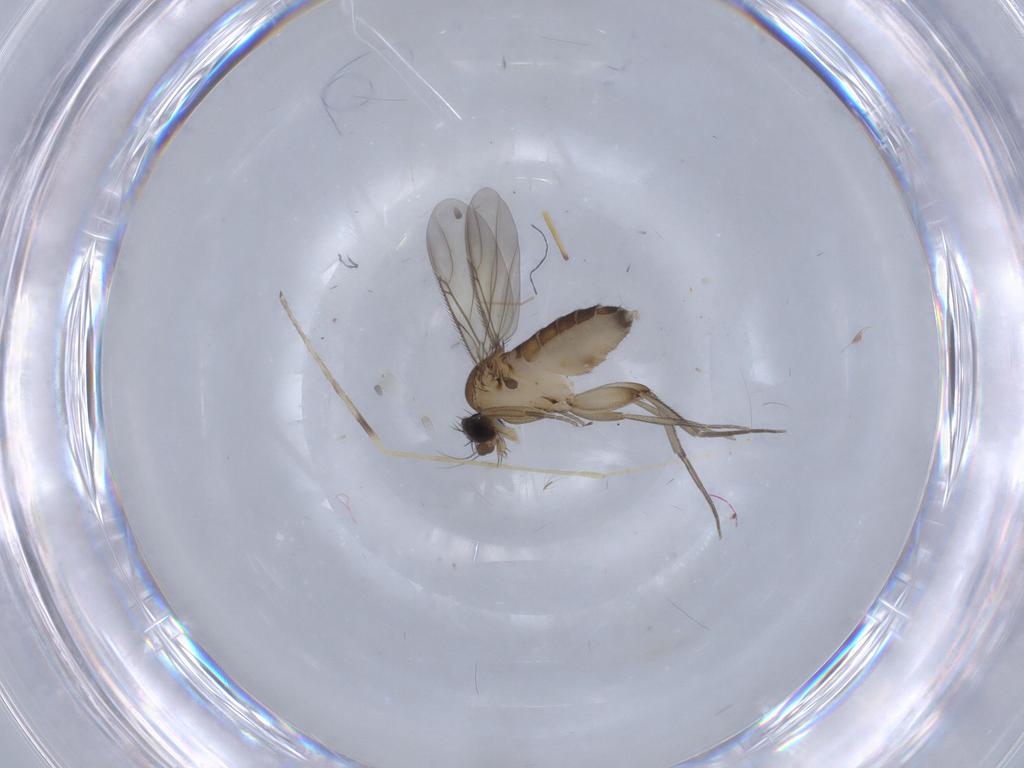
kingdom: Animalia
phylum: Arthropoda
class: Insecta
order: Diptera
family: Phoridae
